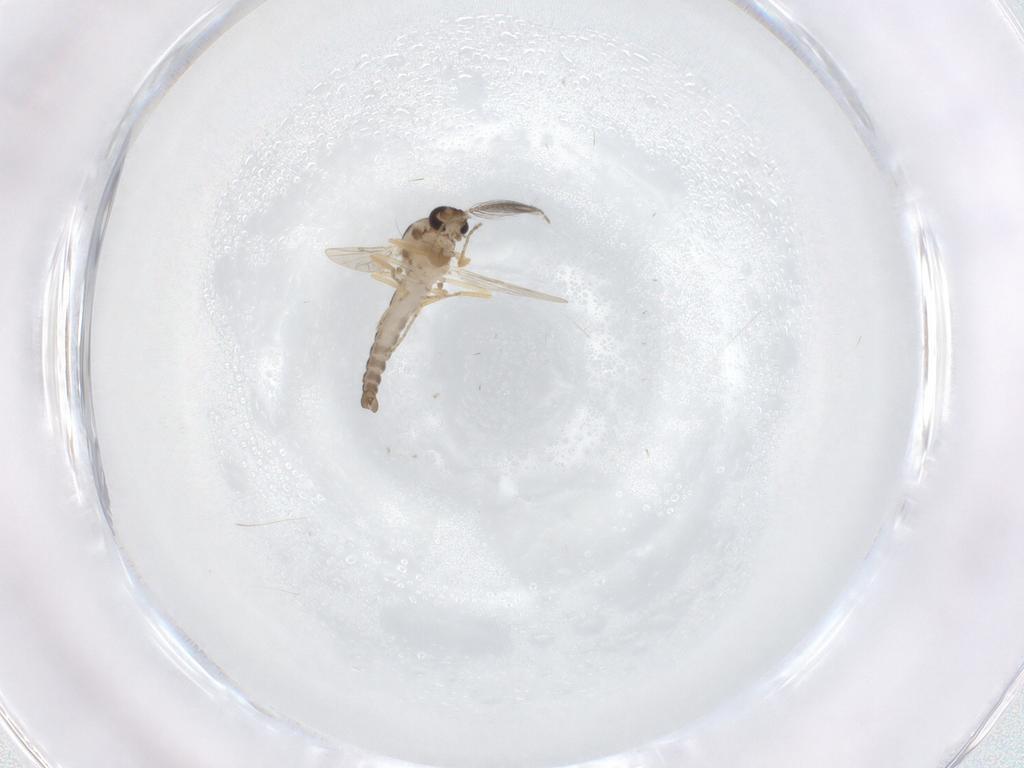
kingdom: Animalia
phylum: Arthropoda
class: Insecta
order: Diptera
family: Ceratopogonidae
